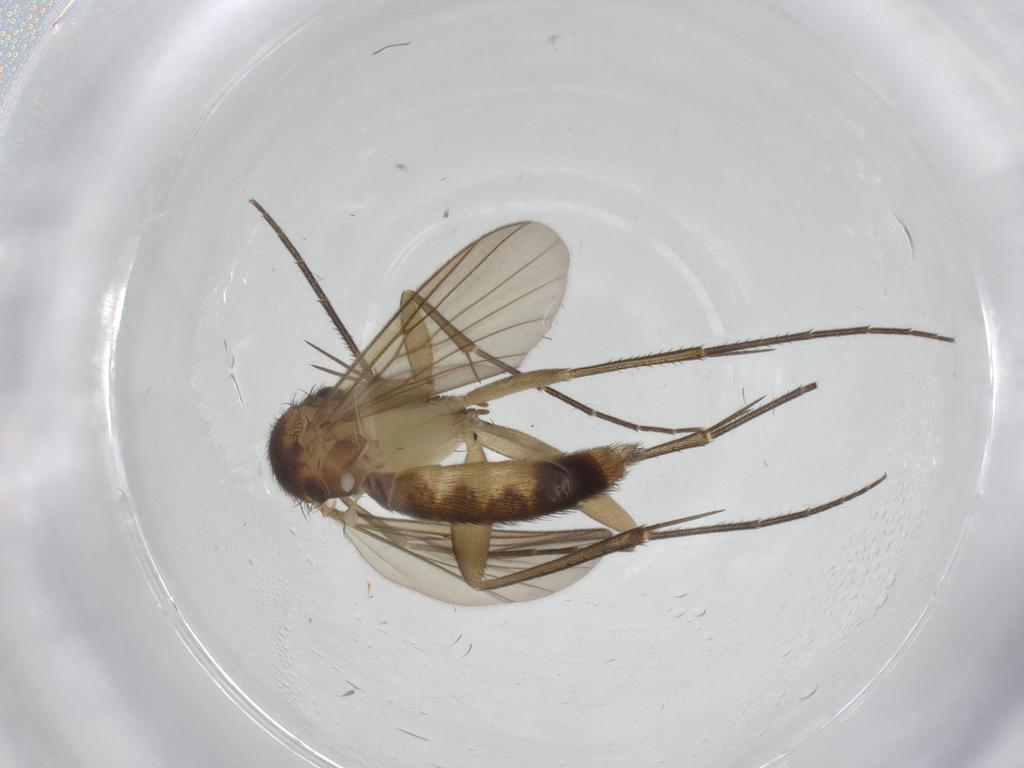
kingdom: Animalia
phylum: Arthropoda
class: Insecta
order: Diptera
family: Mycetophilidae
